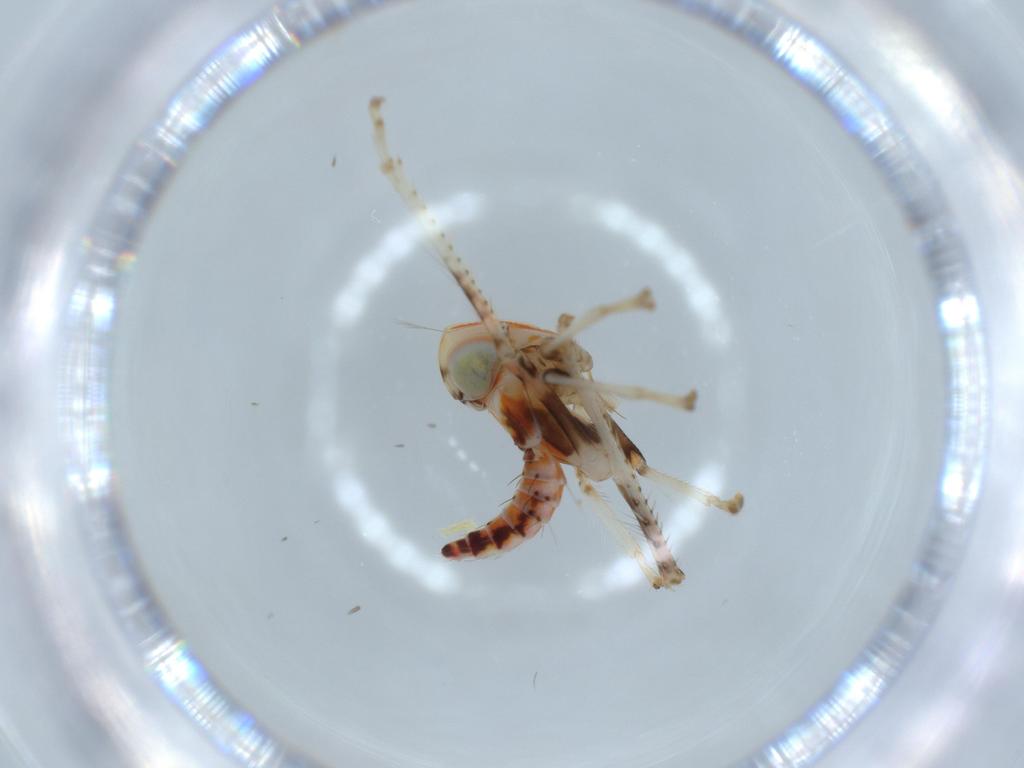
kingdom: Animalia
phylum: Arthropoda
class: Insecta
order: Hemiptera
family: Cicadellidae
